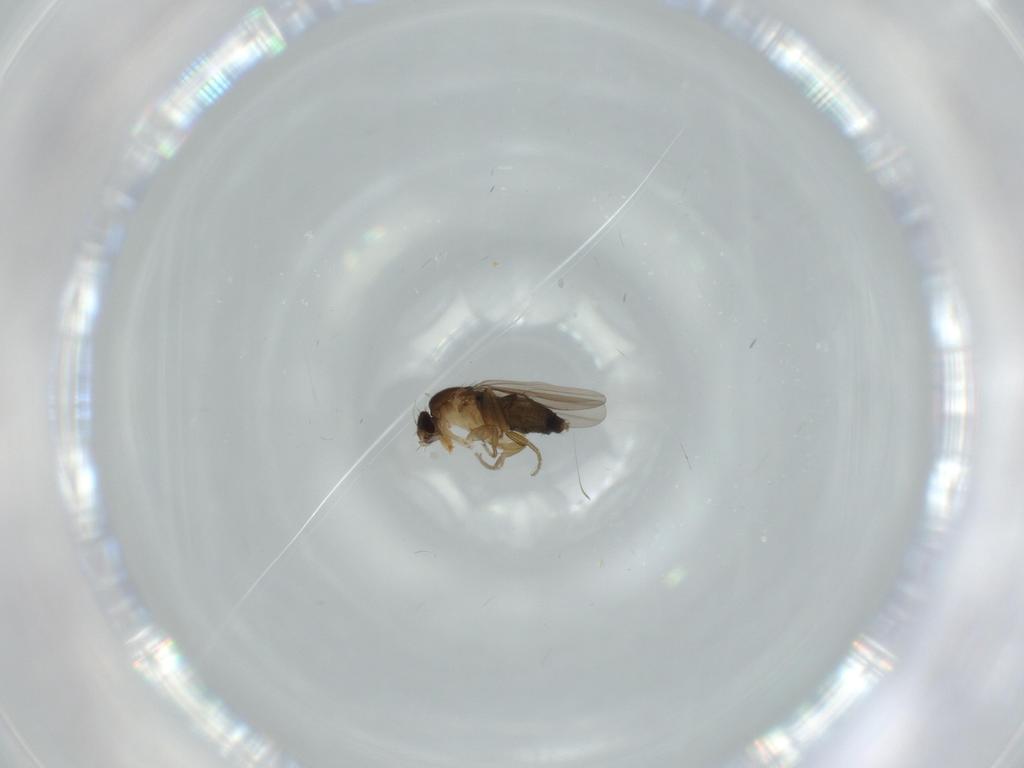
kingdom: Animalia
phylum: Arthropoda
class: Insecta
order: Diptera
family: Phoridae
